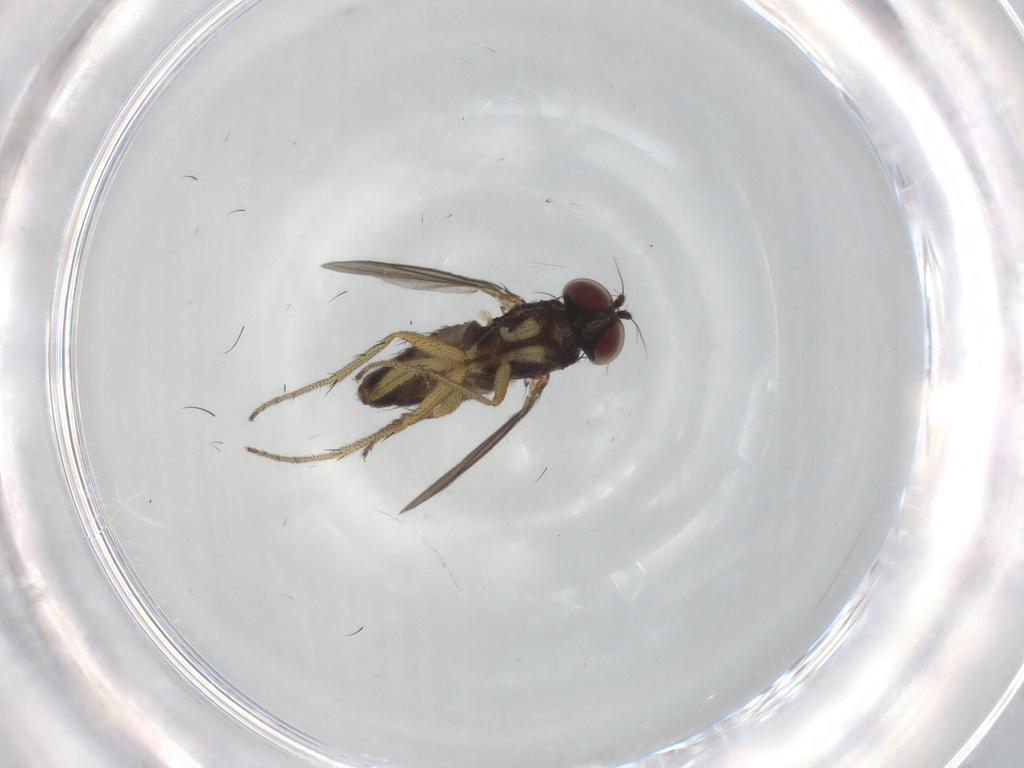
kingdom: Animalia
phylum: Arthropoda
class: Insecta
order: Diptera
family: Dolichopodidae
